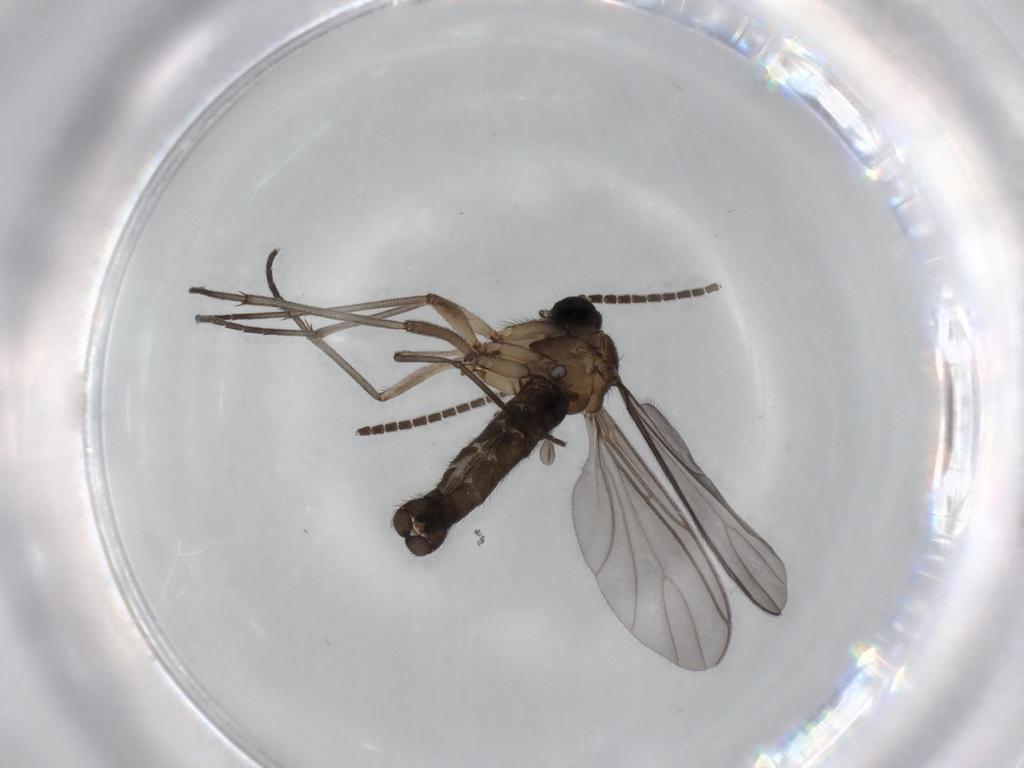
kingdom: Animalia
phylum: Arthropoda
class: Insecta
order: Diptera
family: Sciaridae
